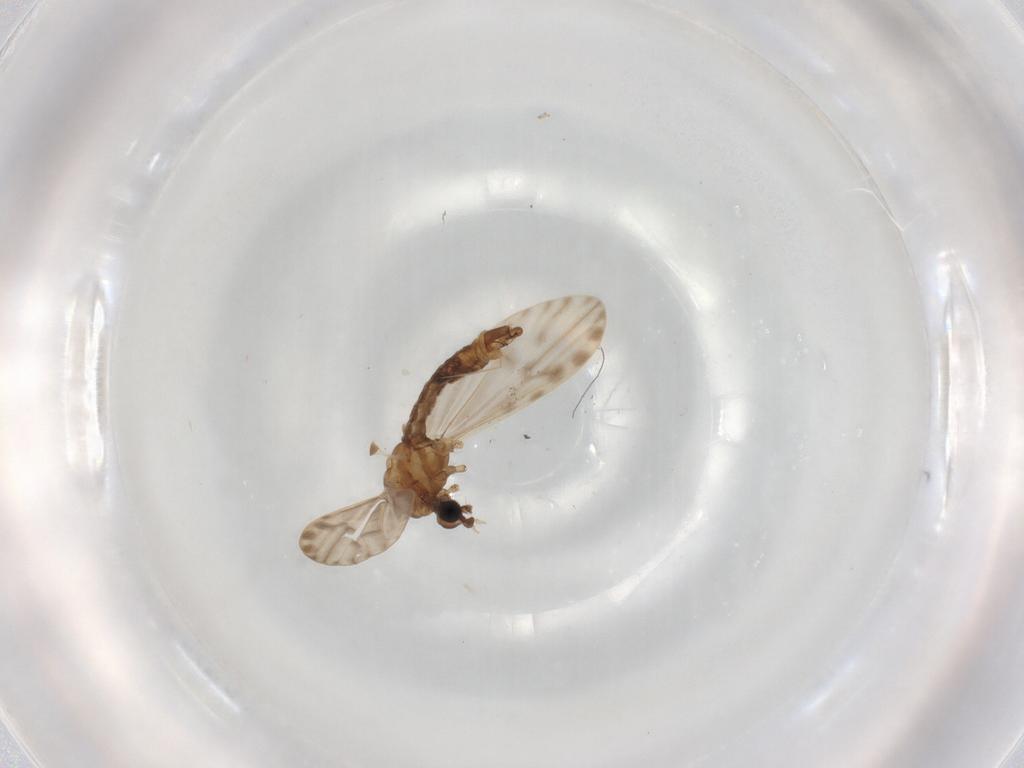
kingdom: Animalia
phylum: Arthropoda
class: Insecta
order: Diptera
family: Limoniidae
